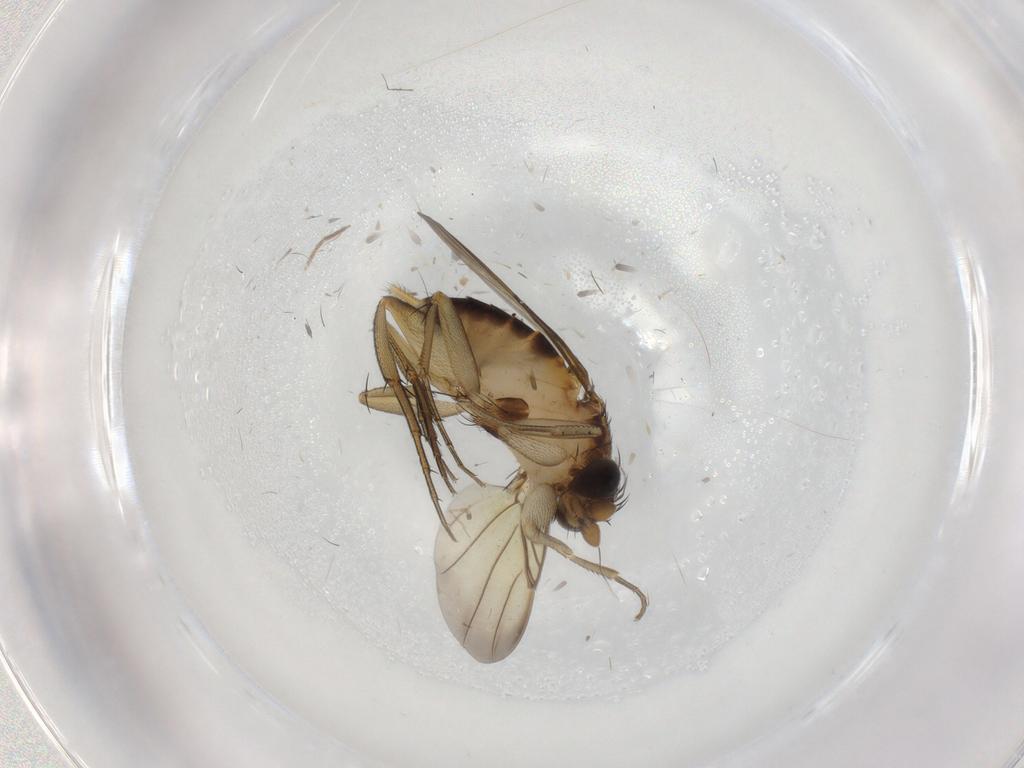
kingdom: Animalia
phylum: Arthropoda
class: Insecta
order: Diptera
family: Phoridae
